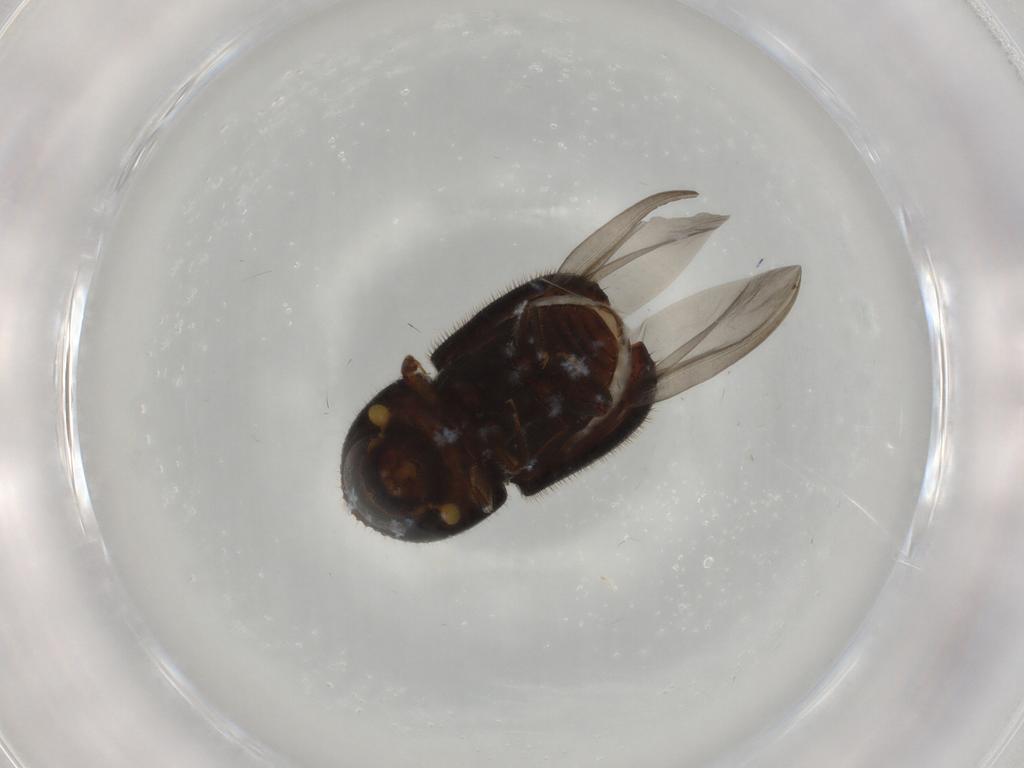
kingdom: Animalia
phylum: Arthropoda
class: Insecta
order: Coleoptera
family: Curculionidae
